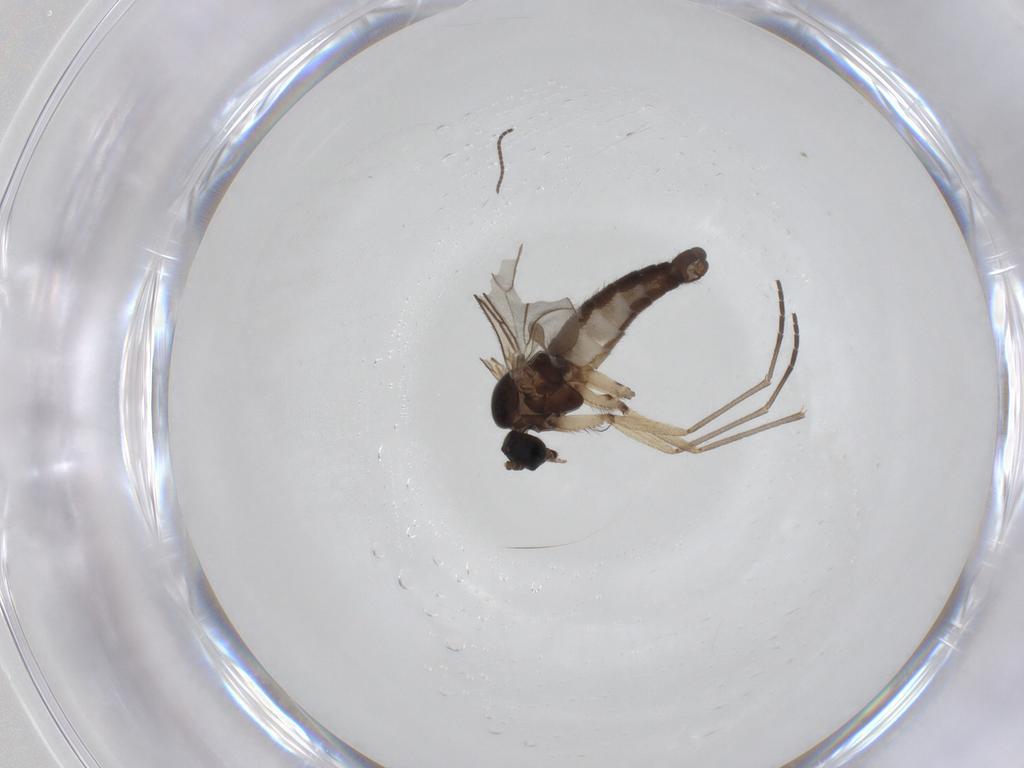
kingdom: Animalia
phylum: Arthropoda
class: Insecta
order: Diptera
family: Sciaridae
